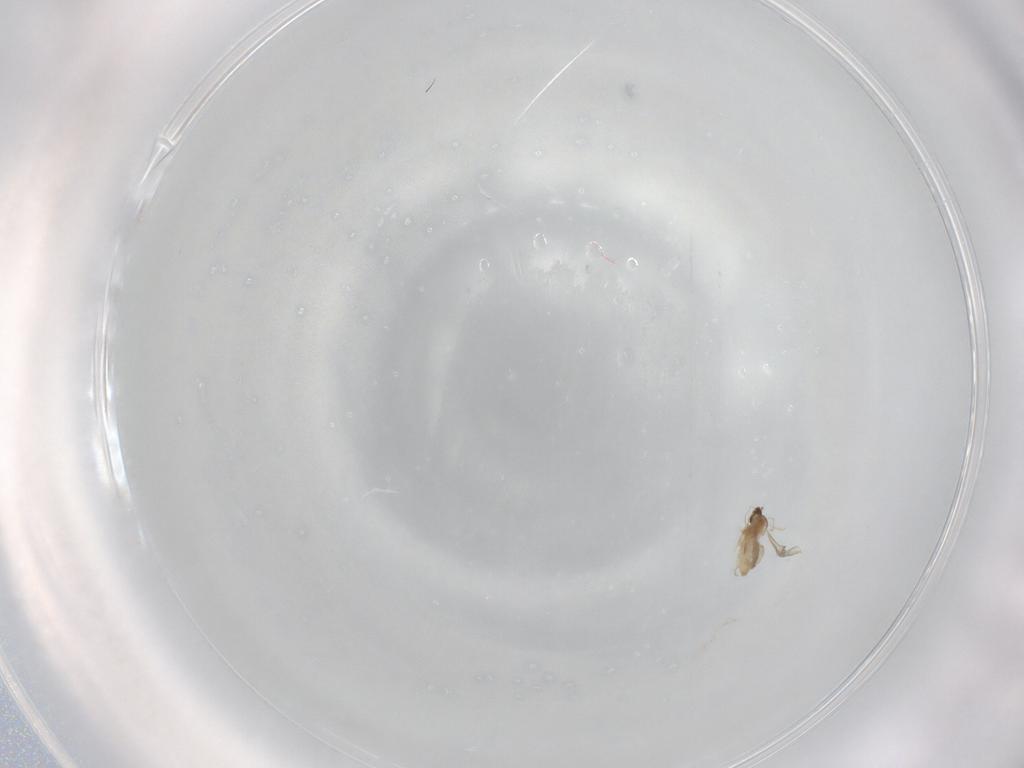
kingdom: Animalia
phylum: Arthropoda
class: Insecta
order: Diptera
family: Cecidomyiidae
